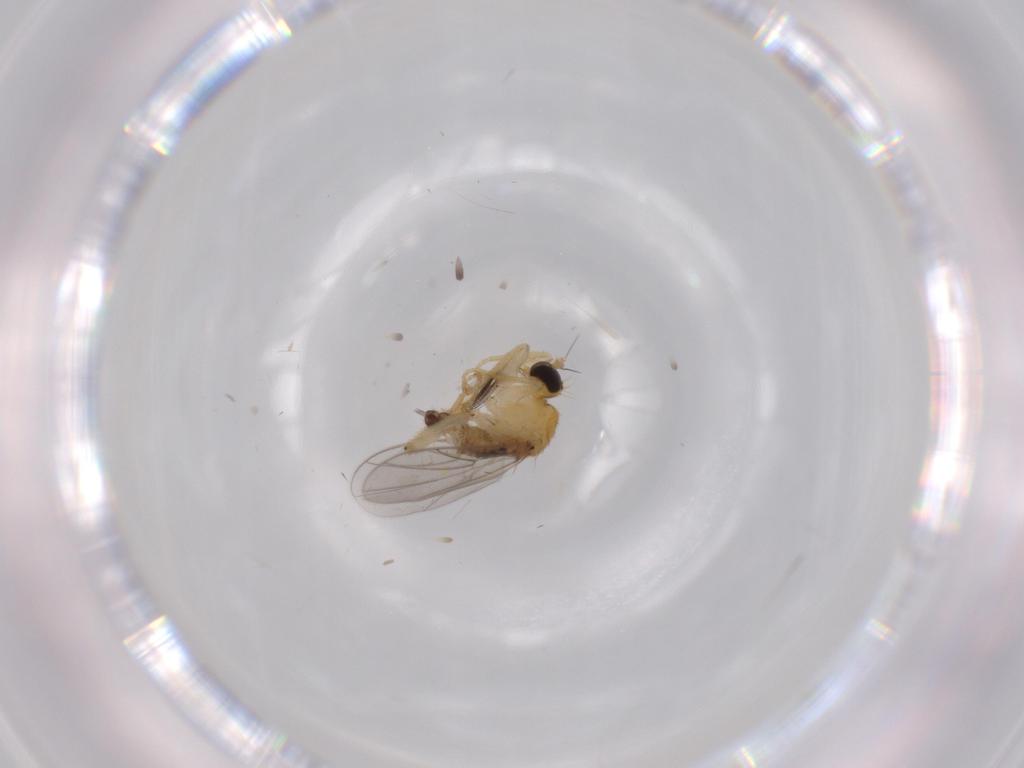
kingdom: Animalia
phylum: Arthropoda
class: Insecta
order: Diptera
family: Hybotidae
